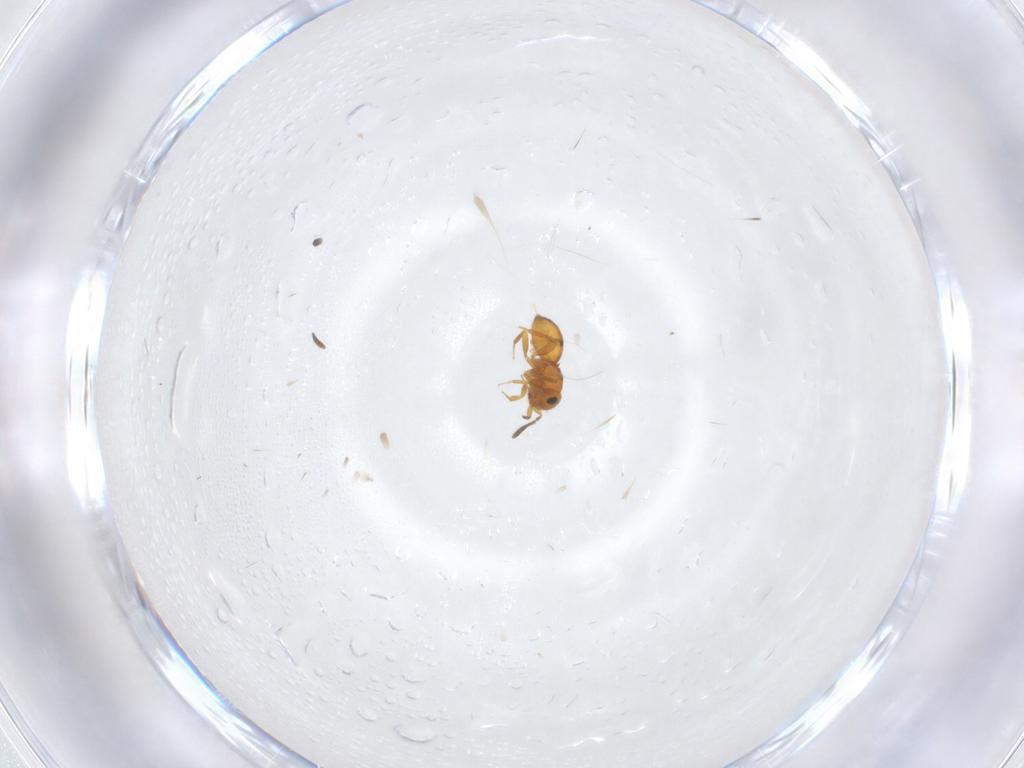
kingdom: Animalia
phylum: Arthropoda
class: Insecta
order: Hymenoptera
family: Scelionidae
